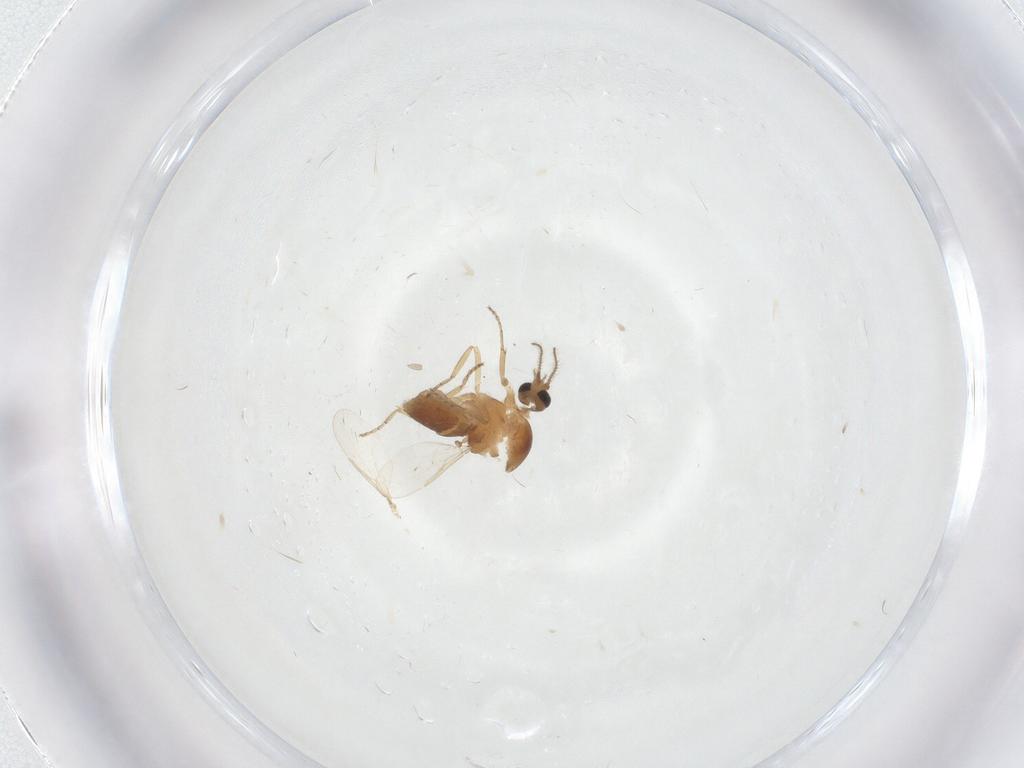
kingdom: Animalia
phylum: Arthropoda
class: Insecta
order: Diptera
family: Ceratopogonidae
